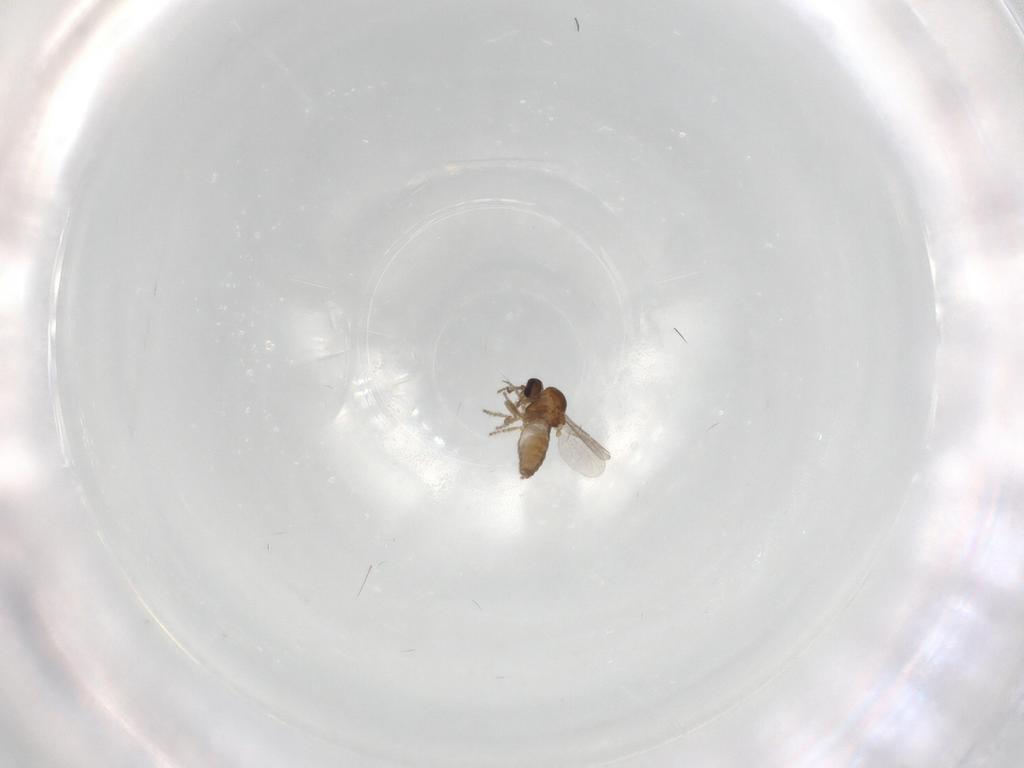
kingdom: Animalia
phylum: Arthropoda
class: Insecta
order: Diptera
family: Ceratopogonidae
